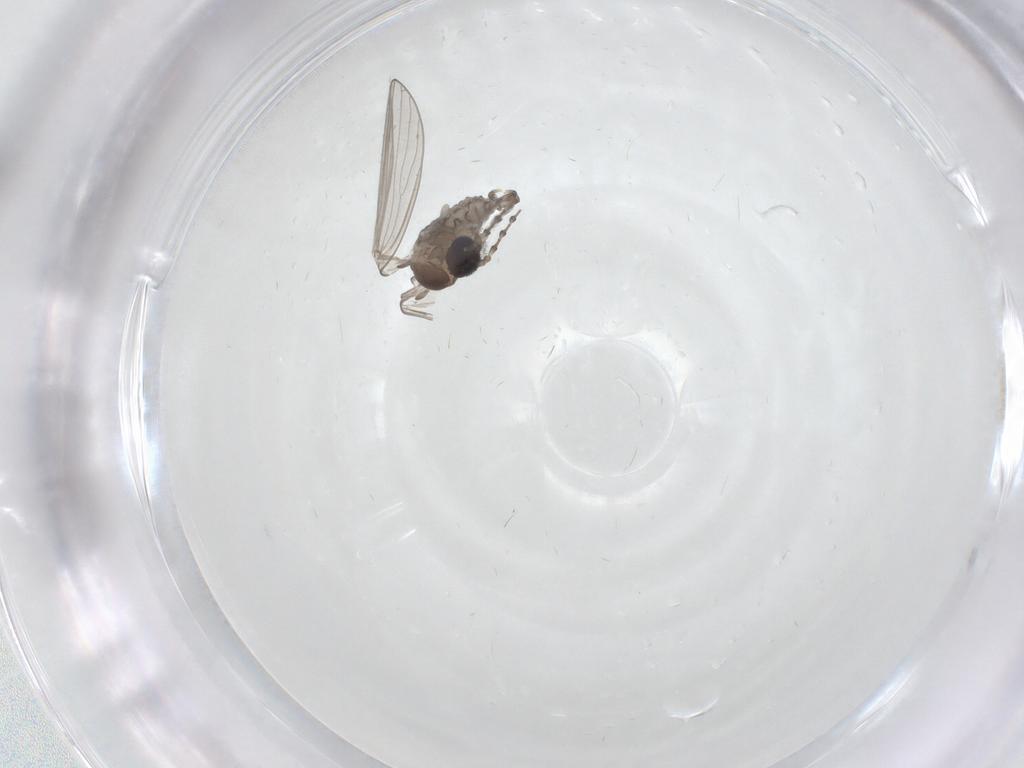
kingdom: Animalia
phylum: Arthropoda
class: Insecta
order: Diptera
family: Psychodidae
